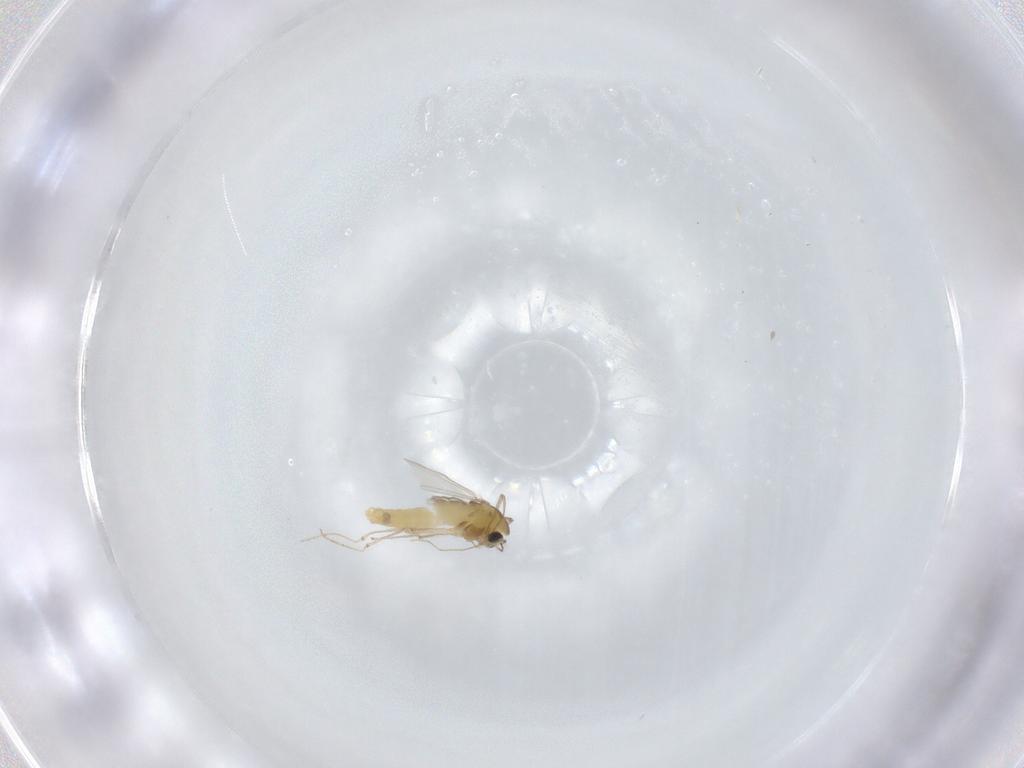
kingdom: Animalia
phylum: Arthropoda
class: Insecta
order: Diptera
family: Chironomidae
